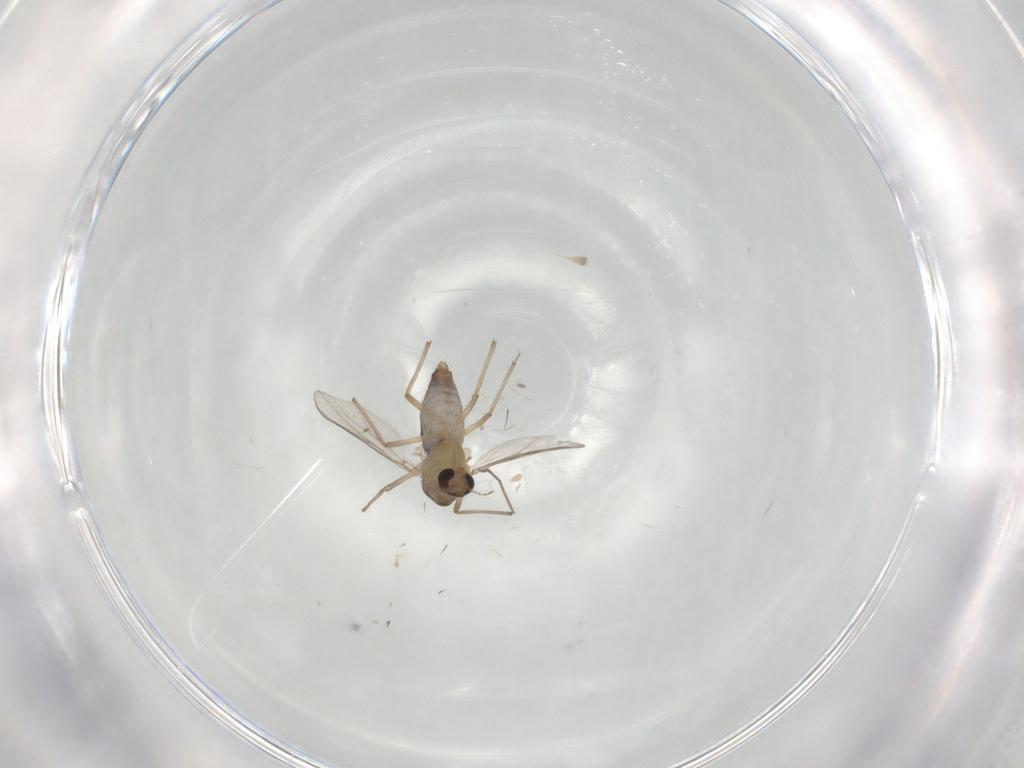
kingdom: Animalia
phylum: Arthropoda
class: Insecta
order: Diptera
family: Chironomidae
